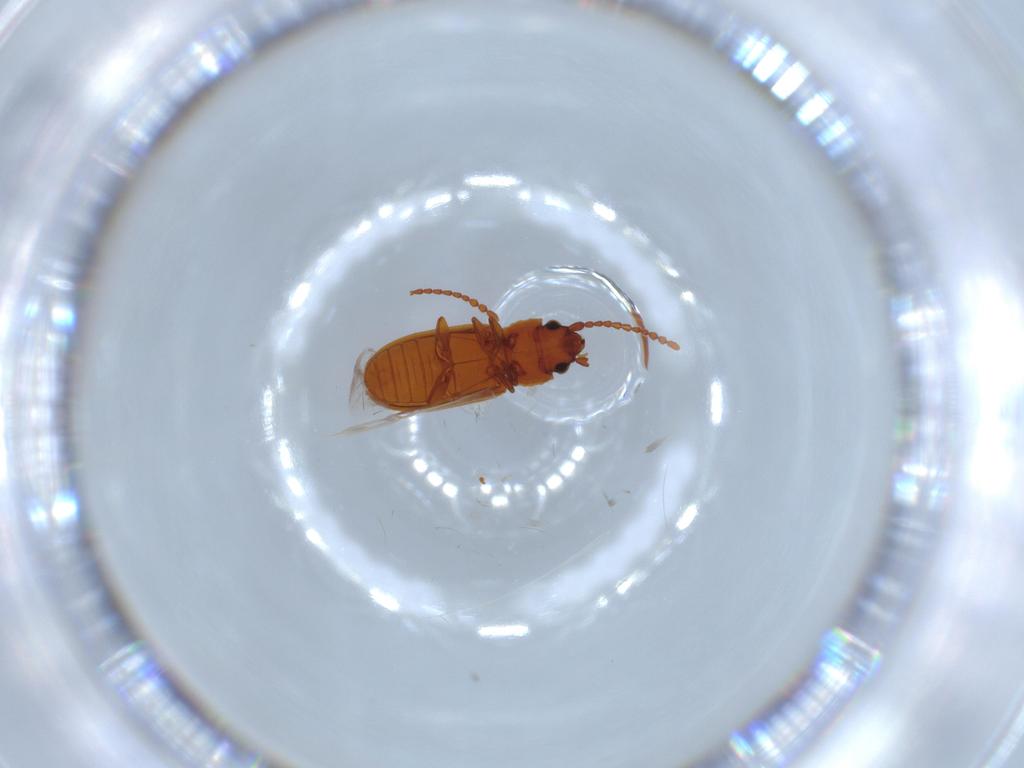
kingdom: Animalia
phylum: Arthropoda
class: Insecta
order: Coleoptera
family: Laemophloeidae
